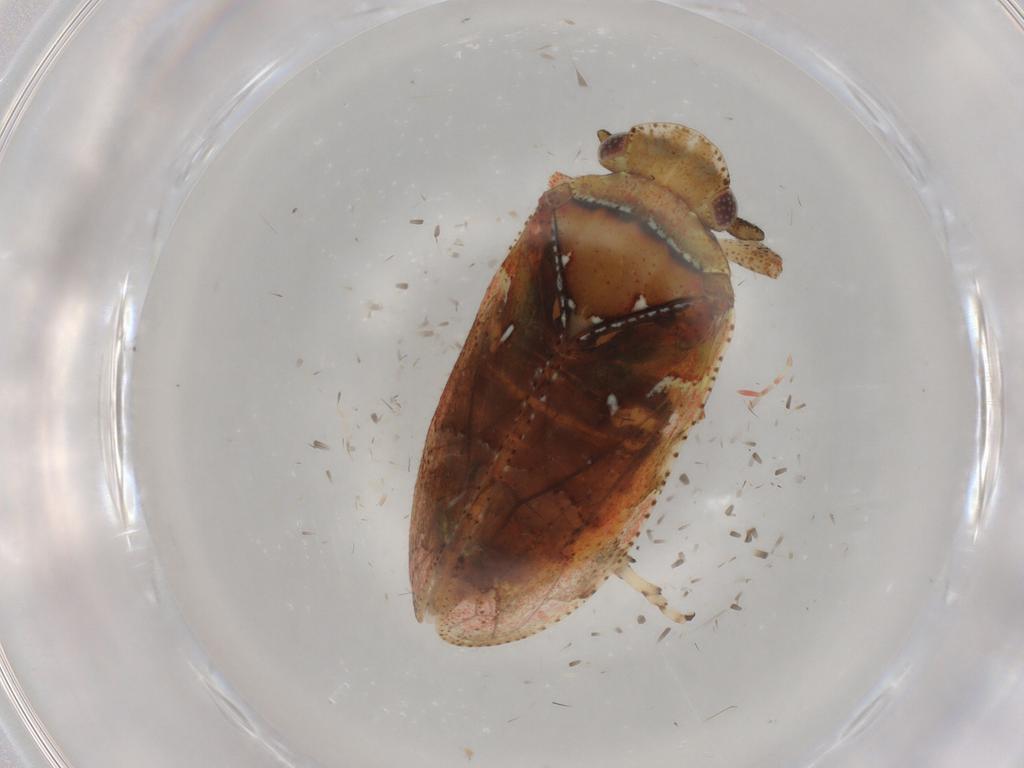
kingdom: Animalia
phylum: Arthropoda
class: Insecta
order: Hemiptera
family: Tettigometridae
